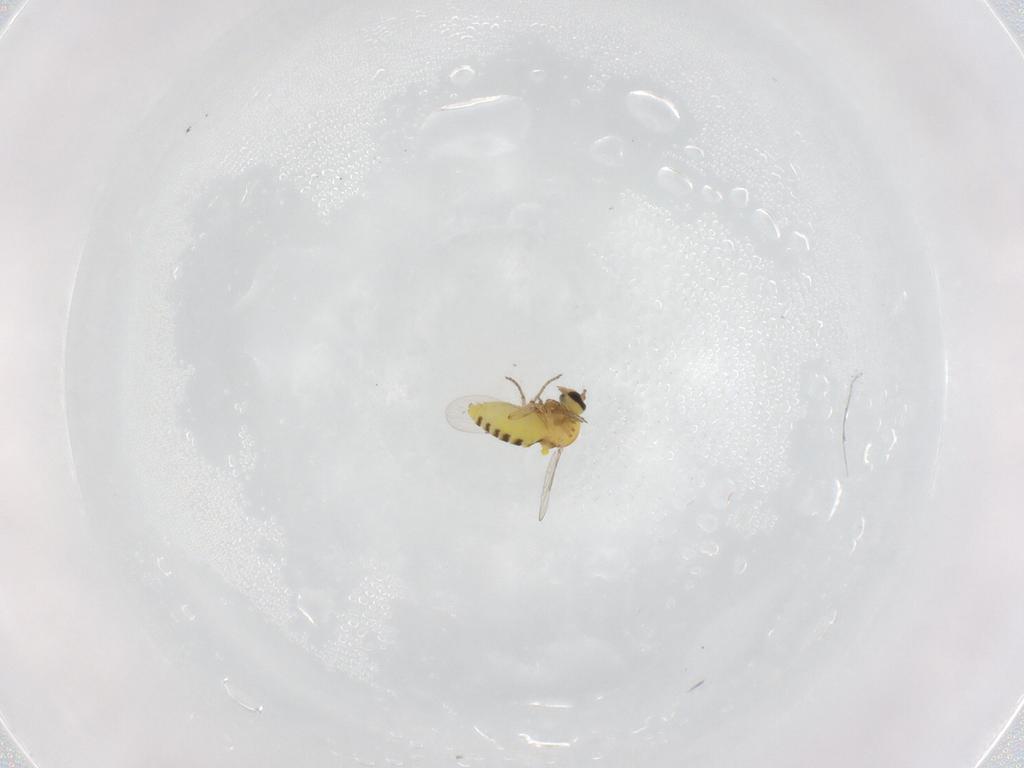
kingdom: Animalia
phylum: Arthropoda
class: Insecta
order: Diptera
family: Ceratopogonidae
